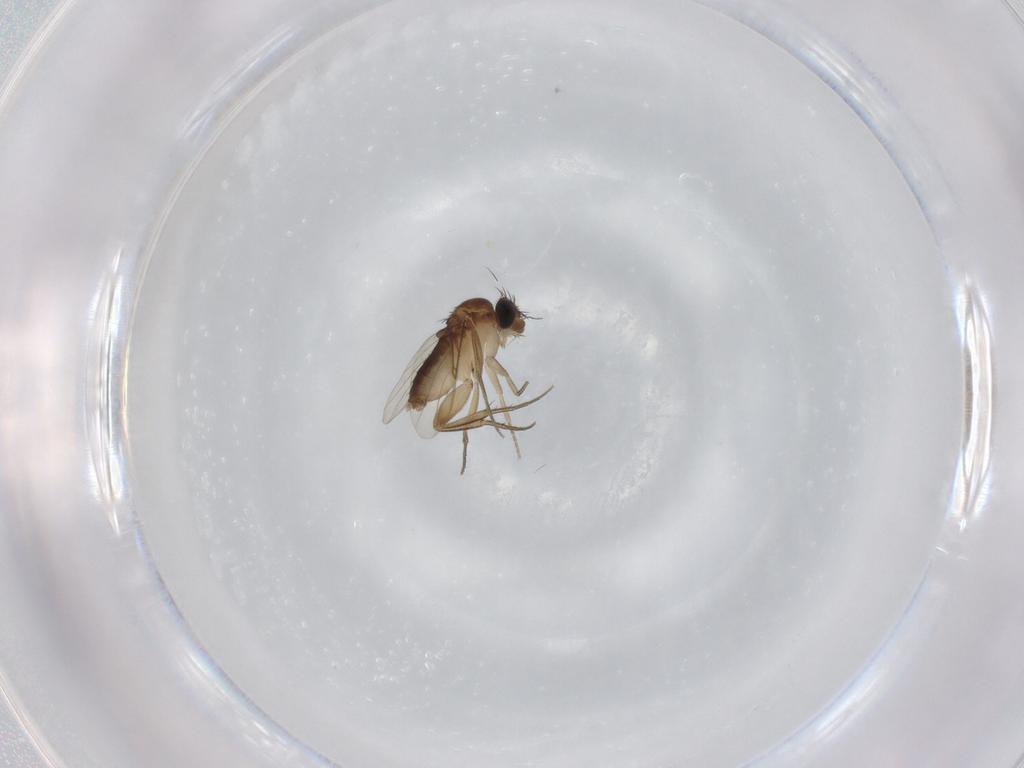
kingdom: Animalia
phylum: Arthropoda
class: Insecta
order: Diptera
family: Phoridae
